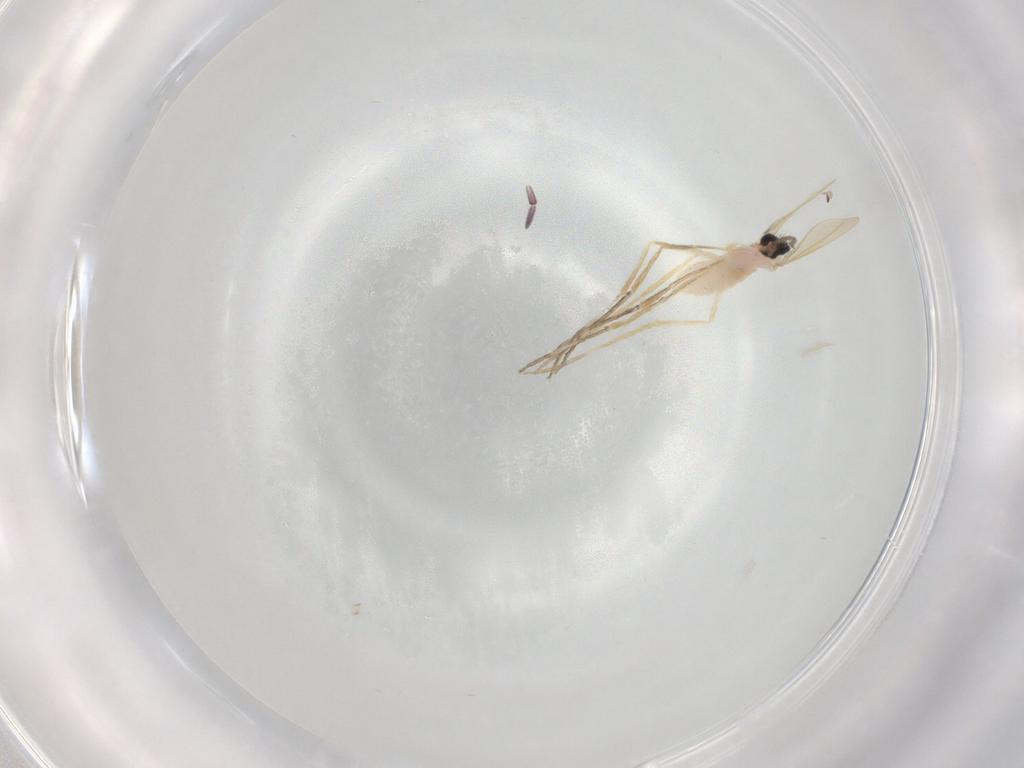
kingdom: Animalia
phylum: Arthropoda
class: Insecta
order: Diptera
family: Cecidomyiidae
